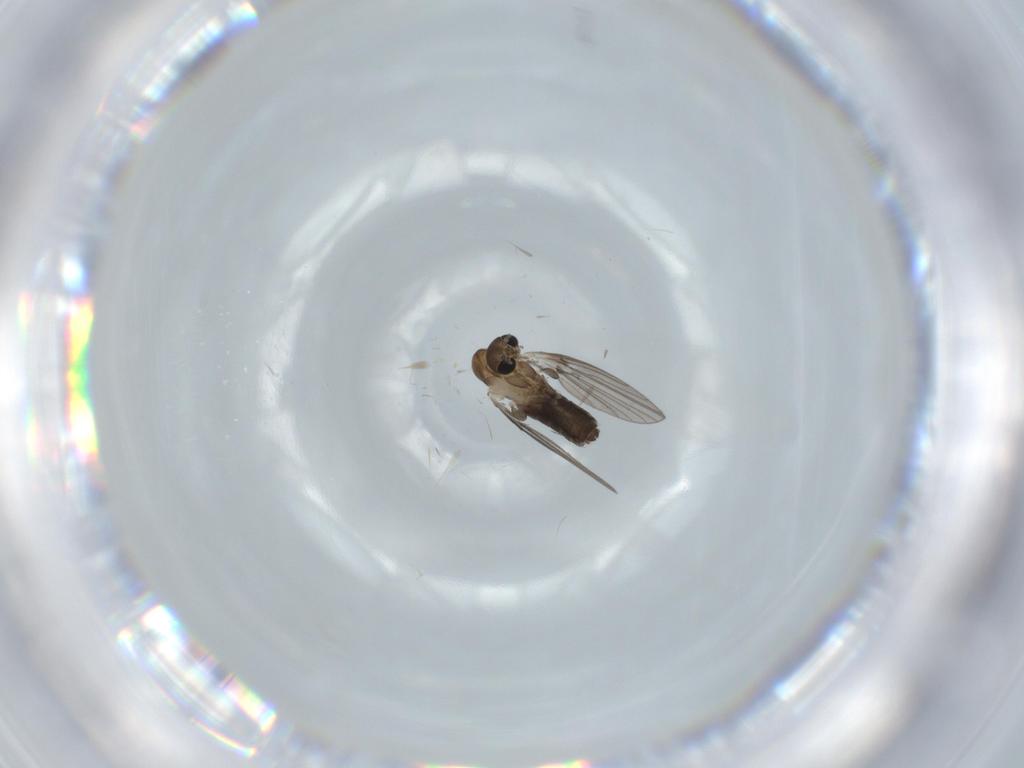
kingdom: Animalia
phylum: Arthropoda
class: Insecta
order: Diptera
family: Psychodidae
